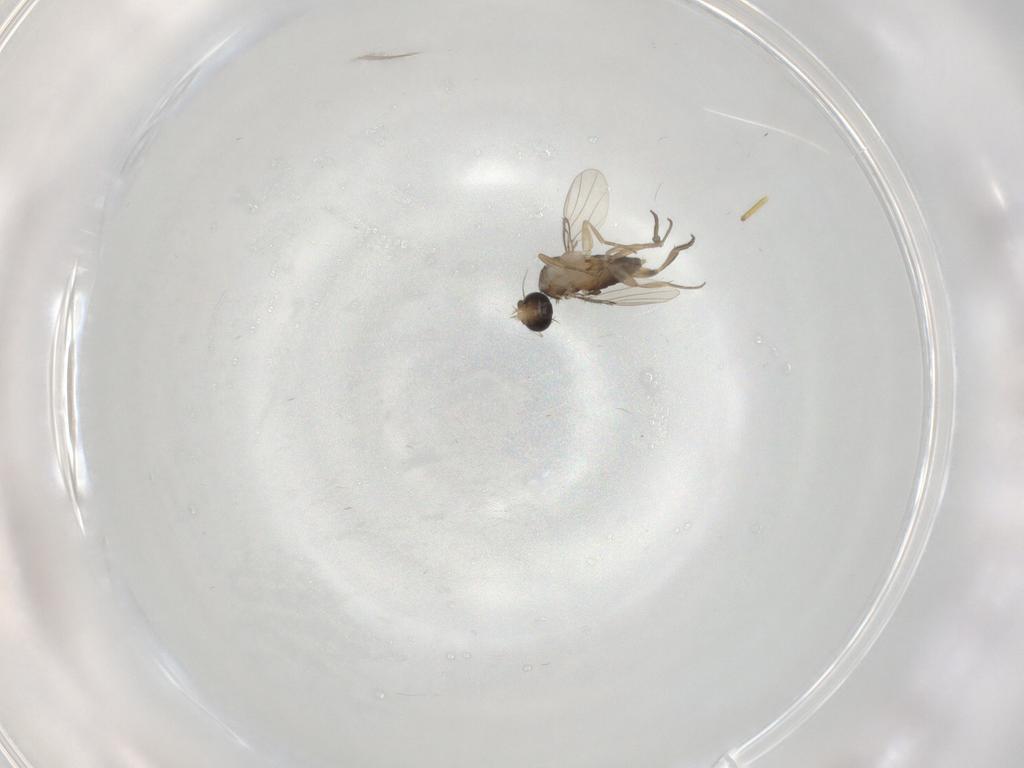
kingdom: Animalia
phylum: Arthropoda
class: Insecta
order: Diptera
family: Phoridae
